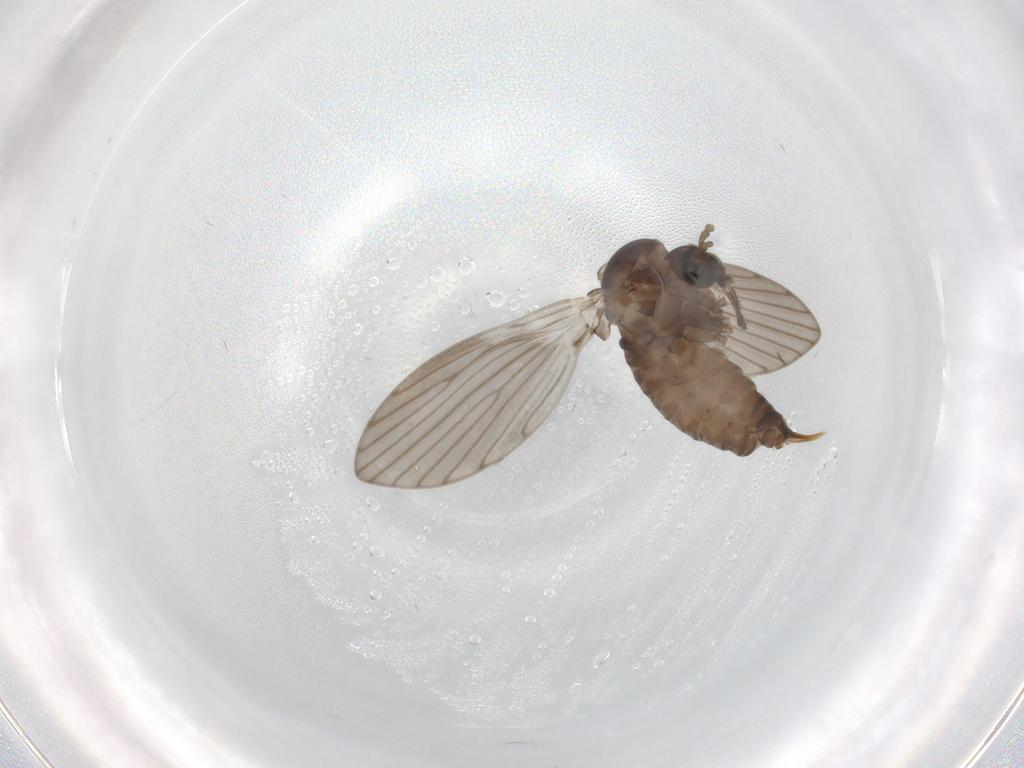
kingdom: Animalia
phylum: Arthropoda
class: Insecta
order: Diptera
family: Psychodidae
